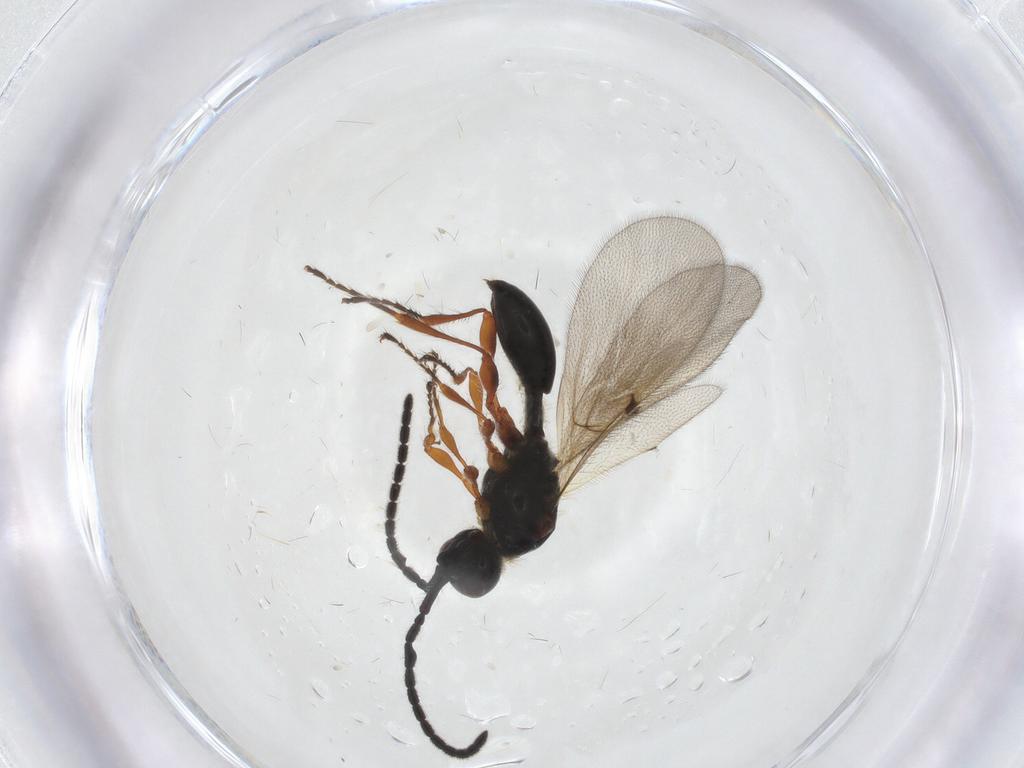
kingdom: Animalia
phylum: Arthropoda
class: Insecta
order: Hymenoptera
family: Diapriidae
